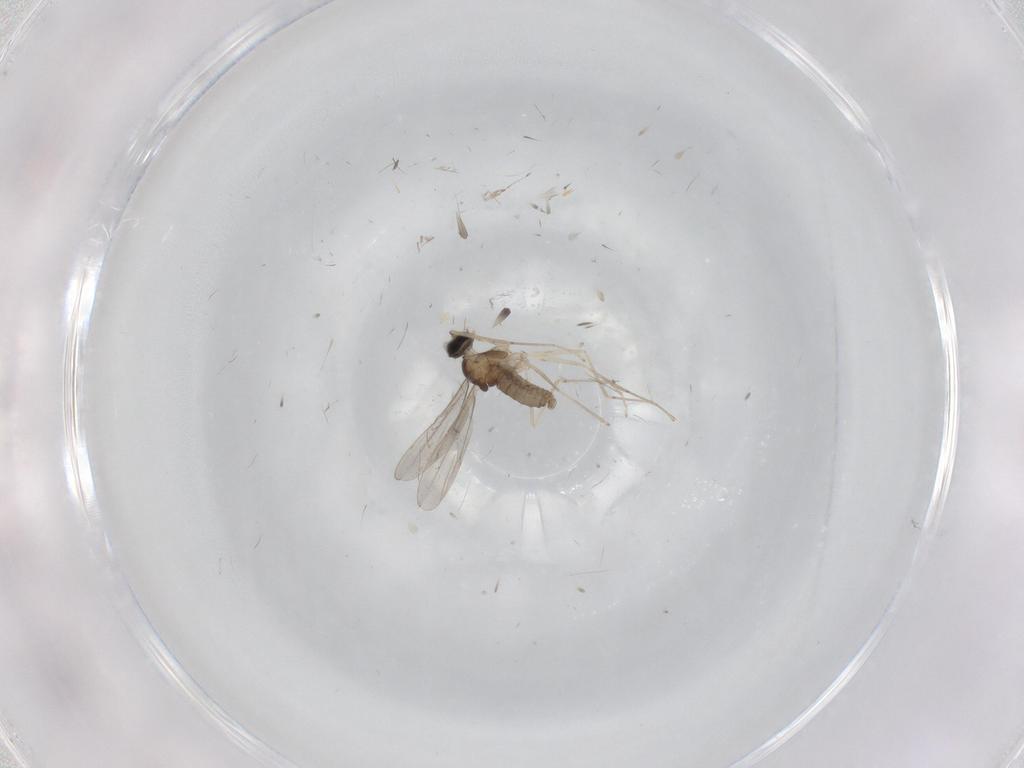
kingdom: Animalia
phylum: Arthropoda
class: Insecta
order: Diptera
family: Cecidomyiidae
